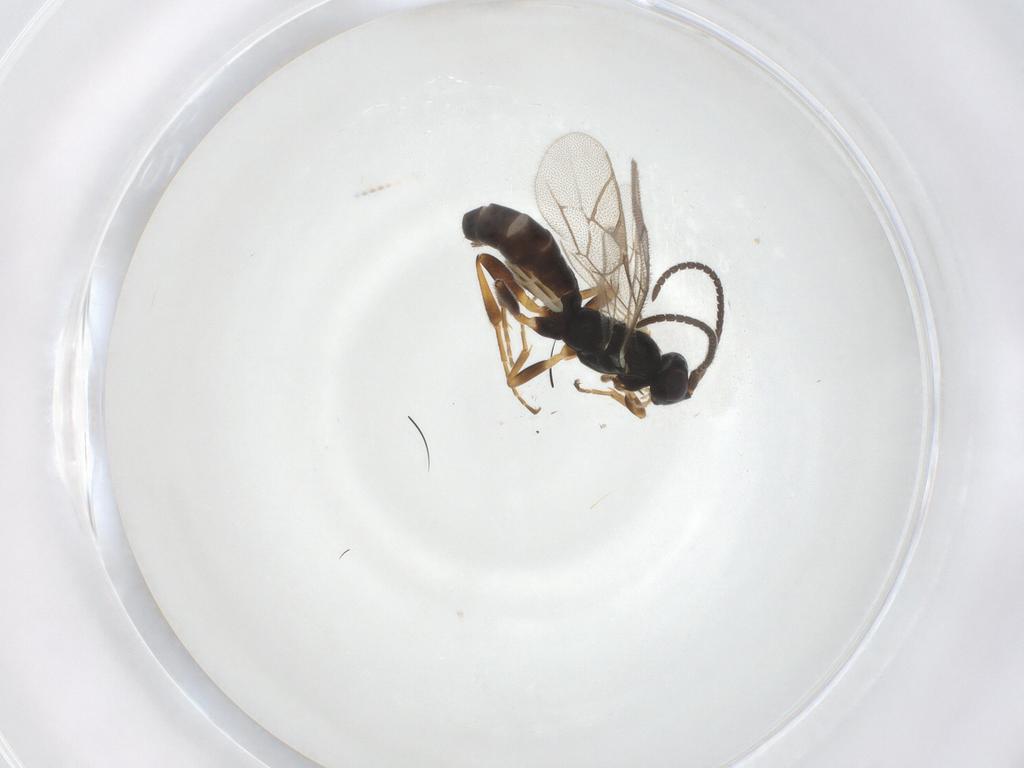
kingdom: Animalia
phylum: Arthropoda
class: Insecta
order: Hymenoptera
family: Ichneumonidae
